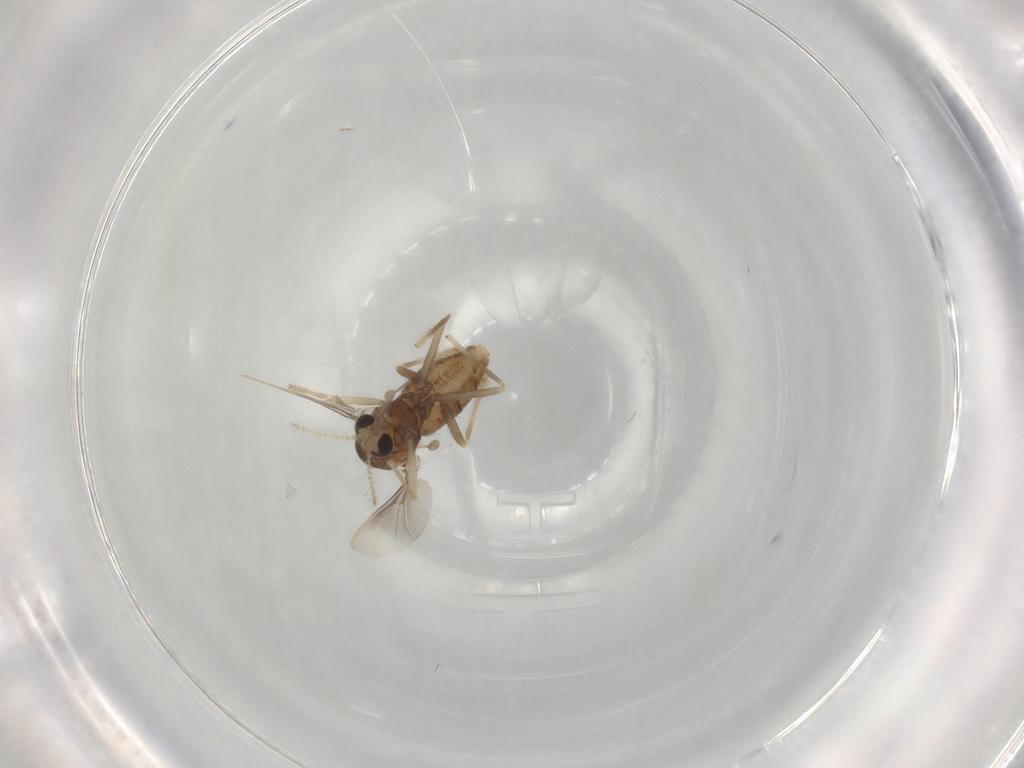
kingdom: Animalia
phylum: Arthropoda
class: Insecta
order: Diptera
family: Chironomidae
